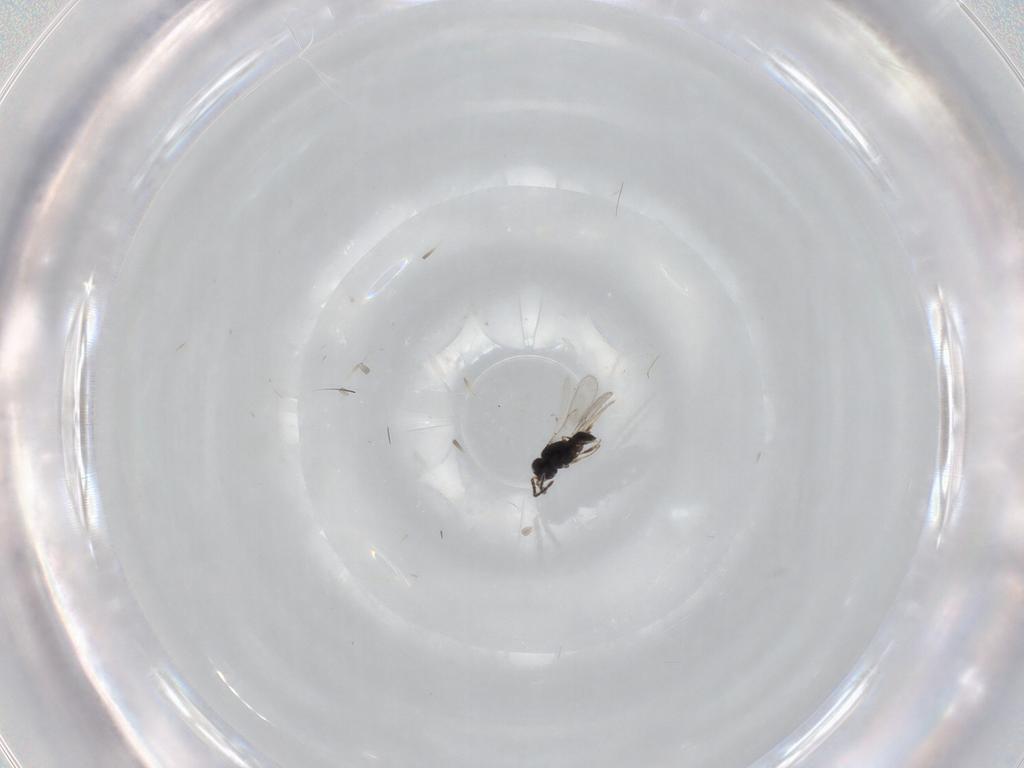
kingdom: Animalia
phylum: Arthropoda
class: Insecta
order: Hymenoptera
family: Scelionidae
